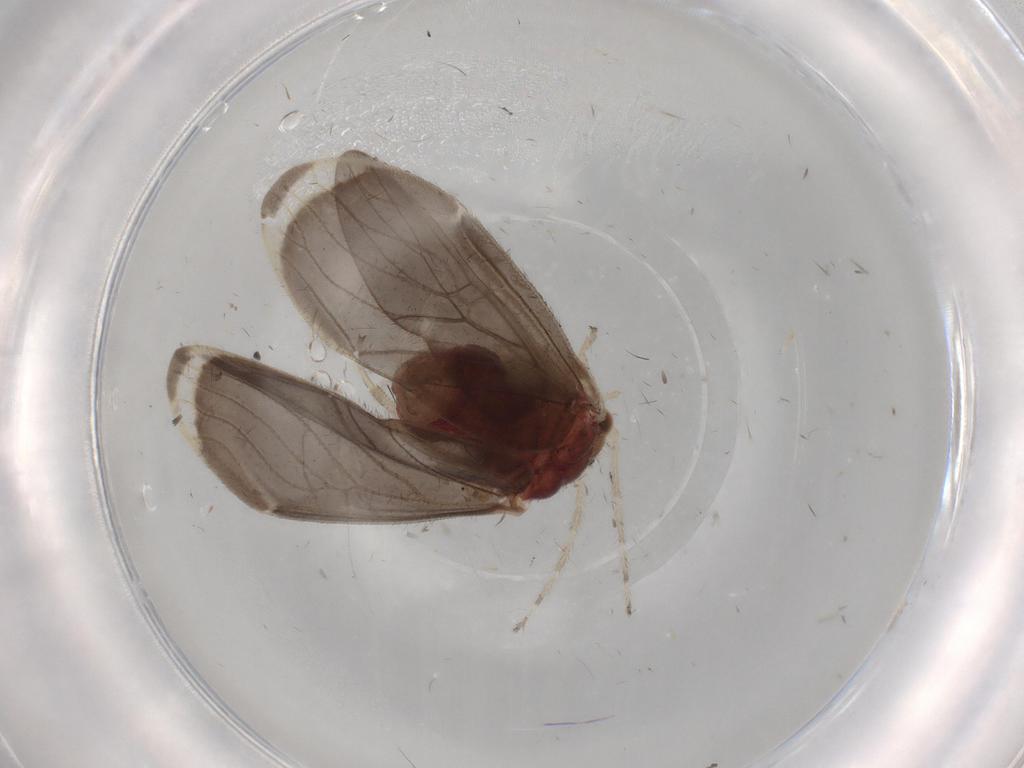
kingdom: Animalia
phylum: Arthropoda
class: Insecta
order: Psocodea
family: Amphipsocidae
